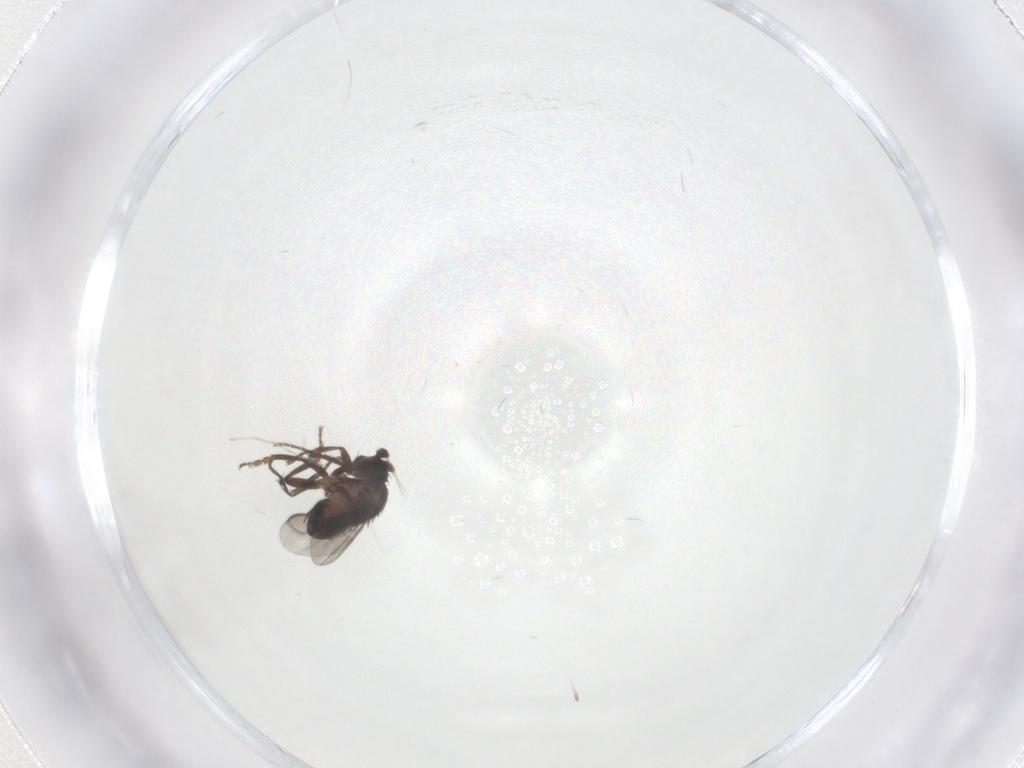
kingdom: Animalia
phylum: Arthropoda
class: Insecta
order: Diptera
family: Sphaeroceridae
